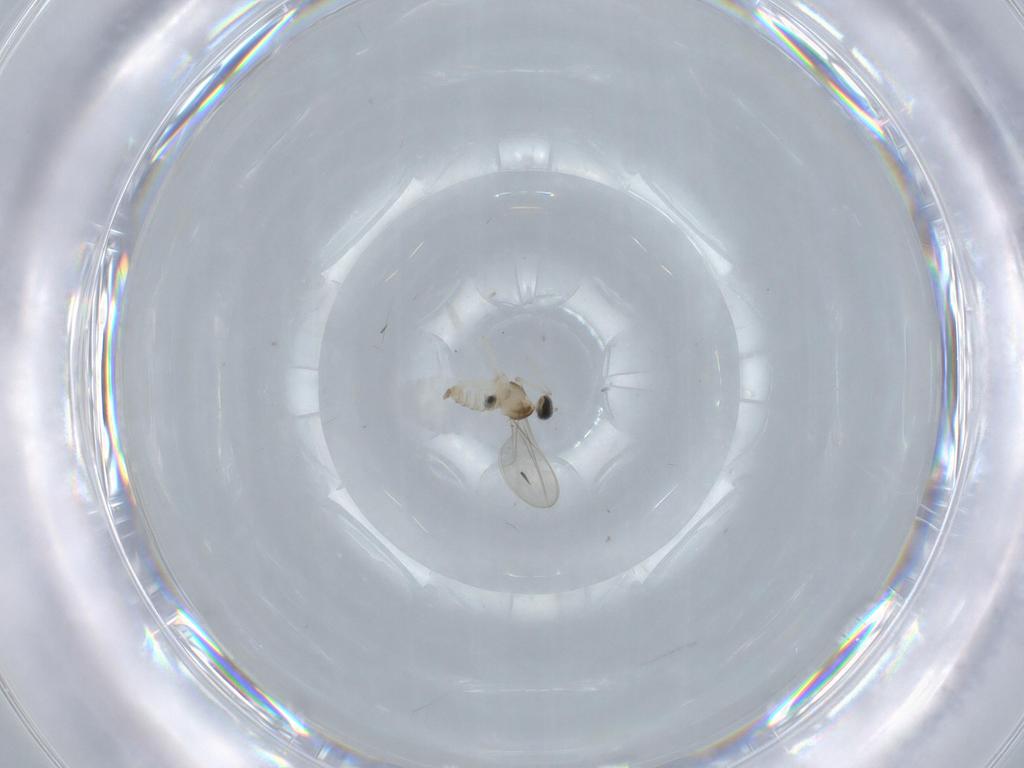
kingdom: Animalia
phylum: Arthropoda
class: Insecta
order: Diptera
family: Cecidomyiidae
